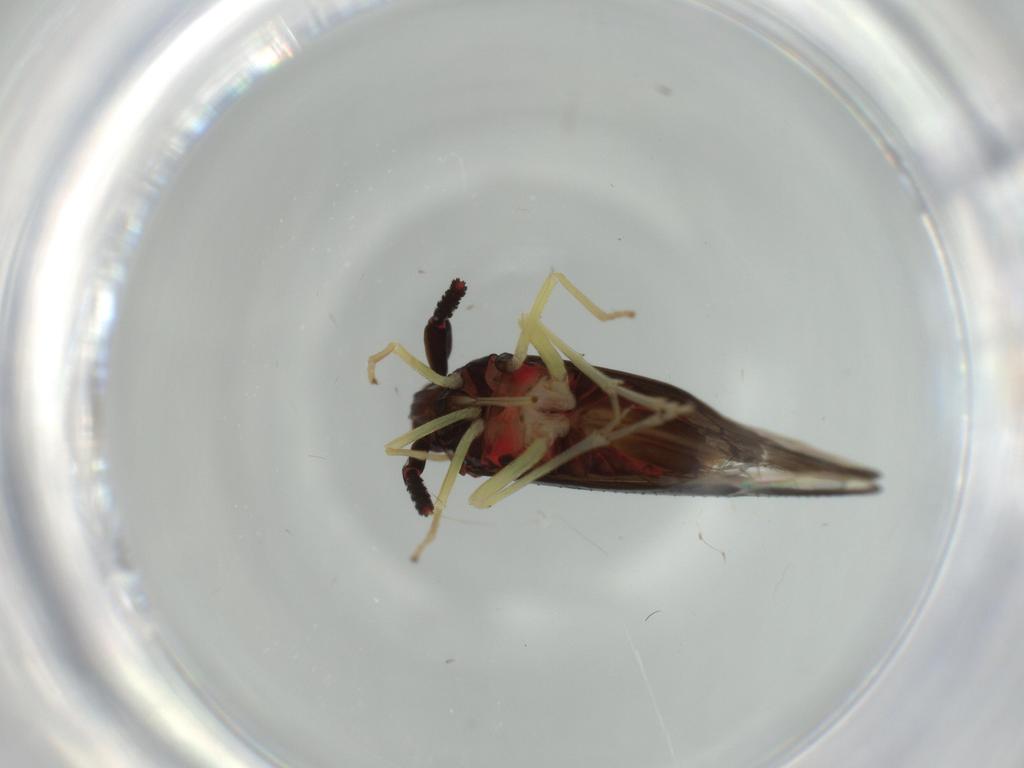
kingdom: Animalia
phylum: Arthropoda
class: Insecta
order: Hemiptera
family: Delphacidae
